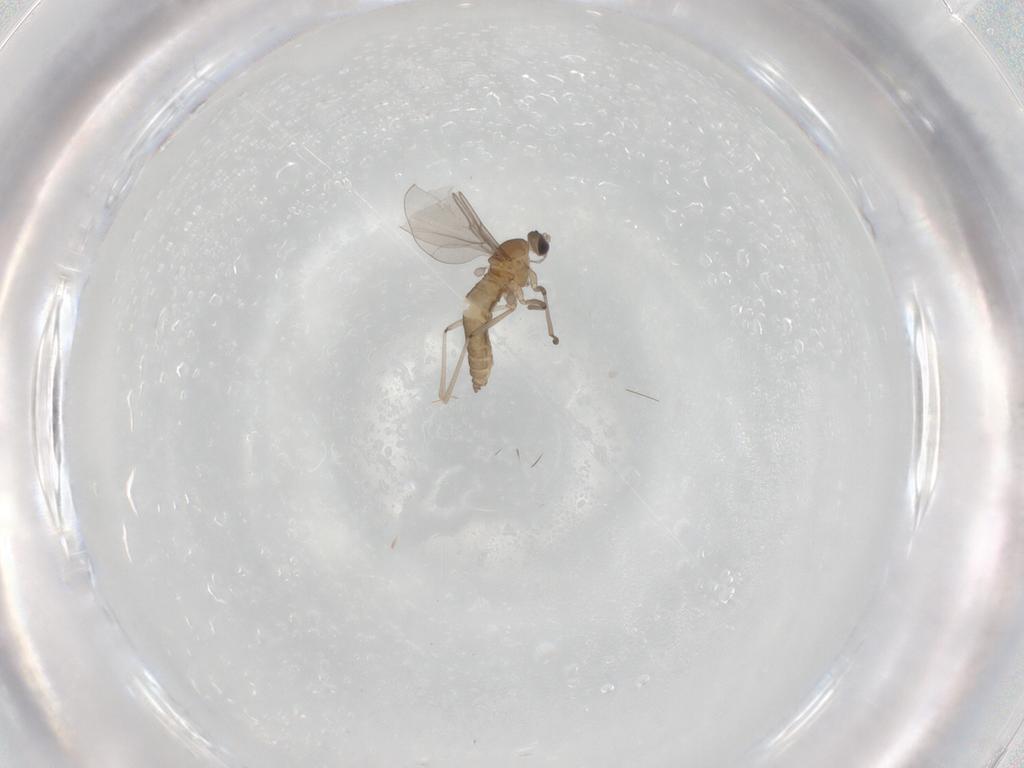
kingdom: Animalia
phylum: Arthropoda
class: Insecta
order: Diptera
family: Cecidomyiidae
